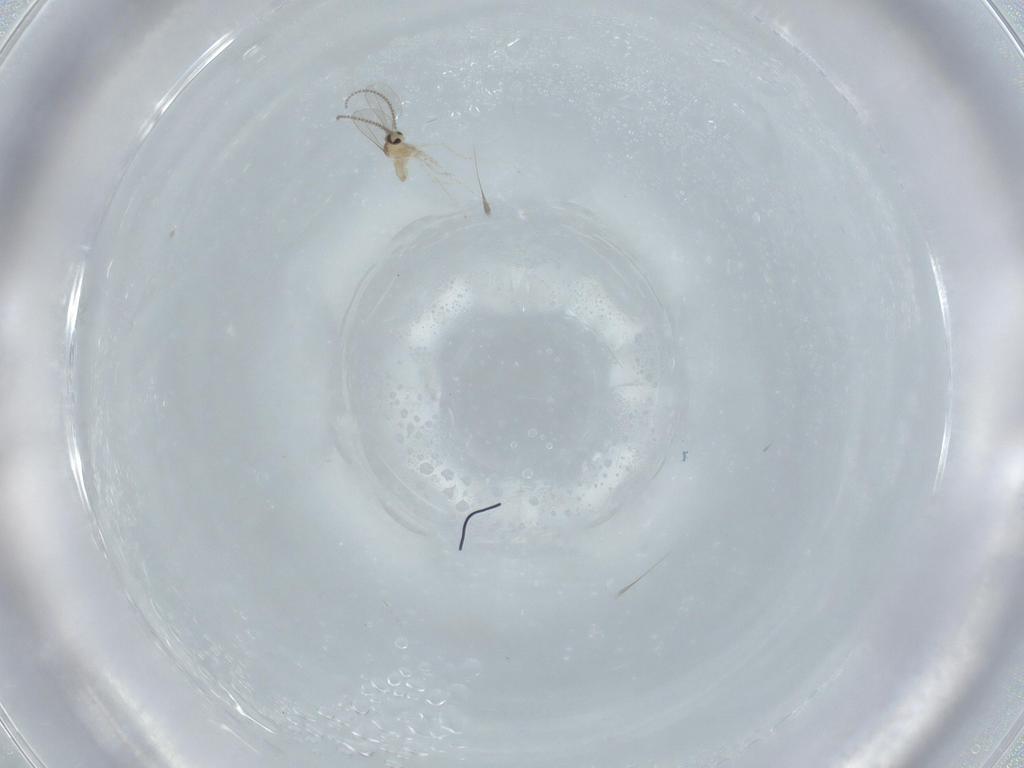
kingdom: Animalia
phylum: Arthropoda
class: Insecta
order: Diptera
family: Cecidomyiidae
